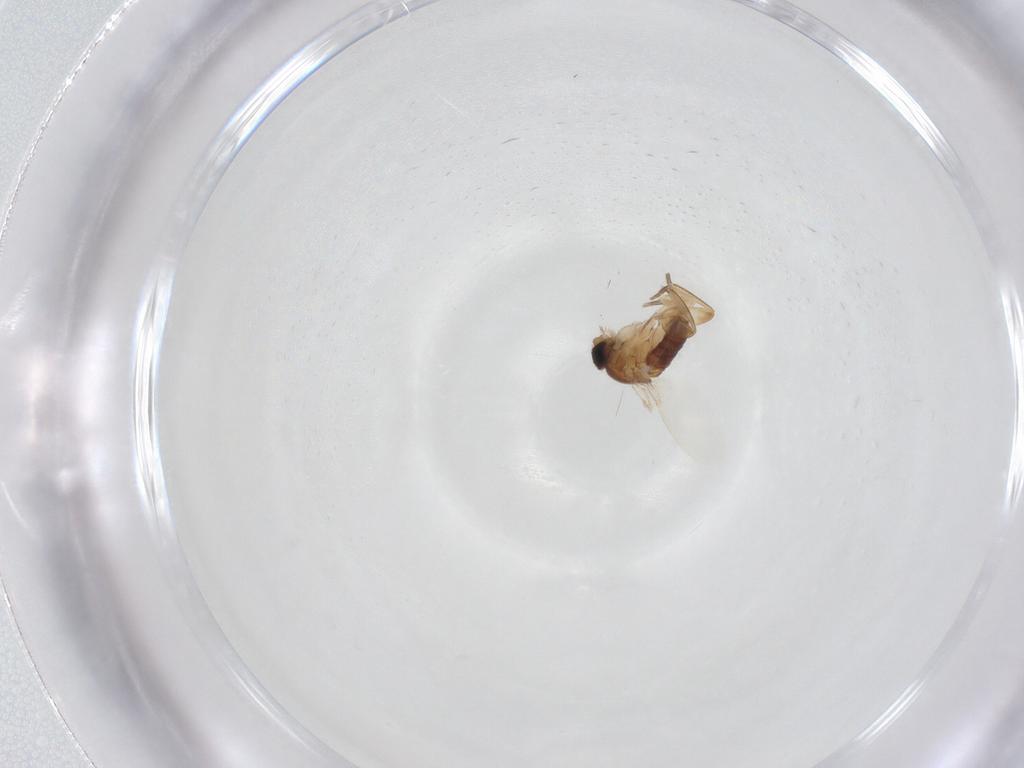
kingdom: Animalia
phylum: Arthropoda
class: Insecta
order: Diptera
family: Phoridae
